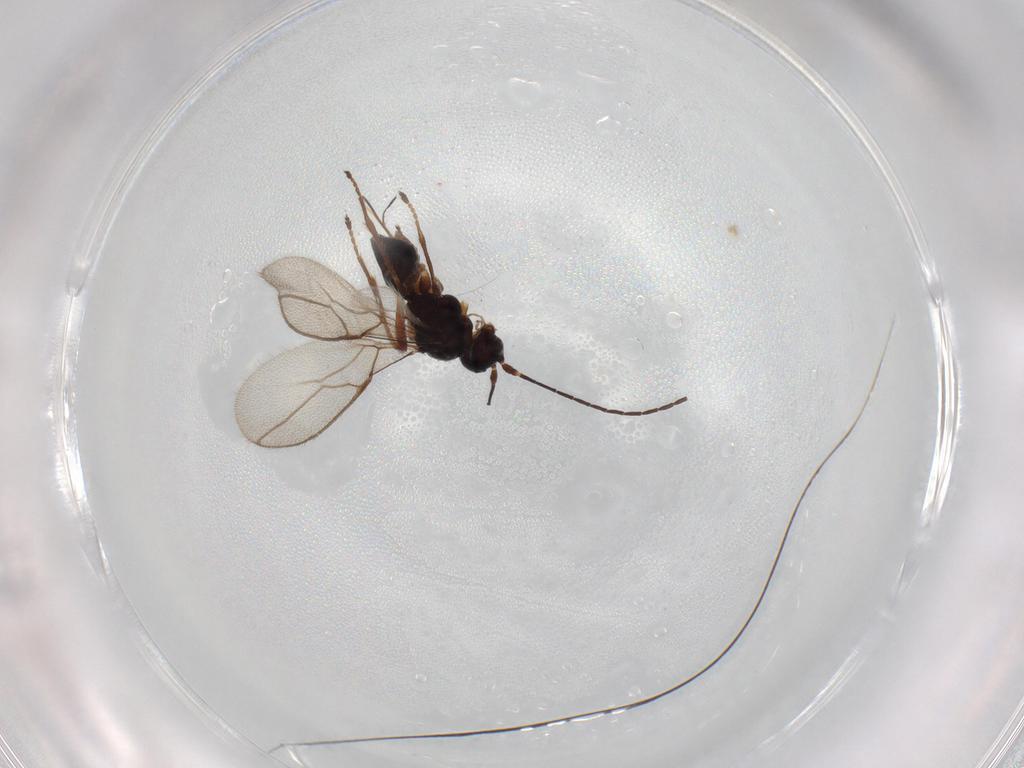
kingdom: Animalia
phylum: Arthropoda
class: Insecta
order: Hymenoptera
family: Braconidae
